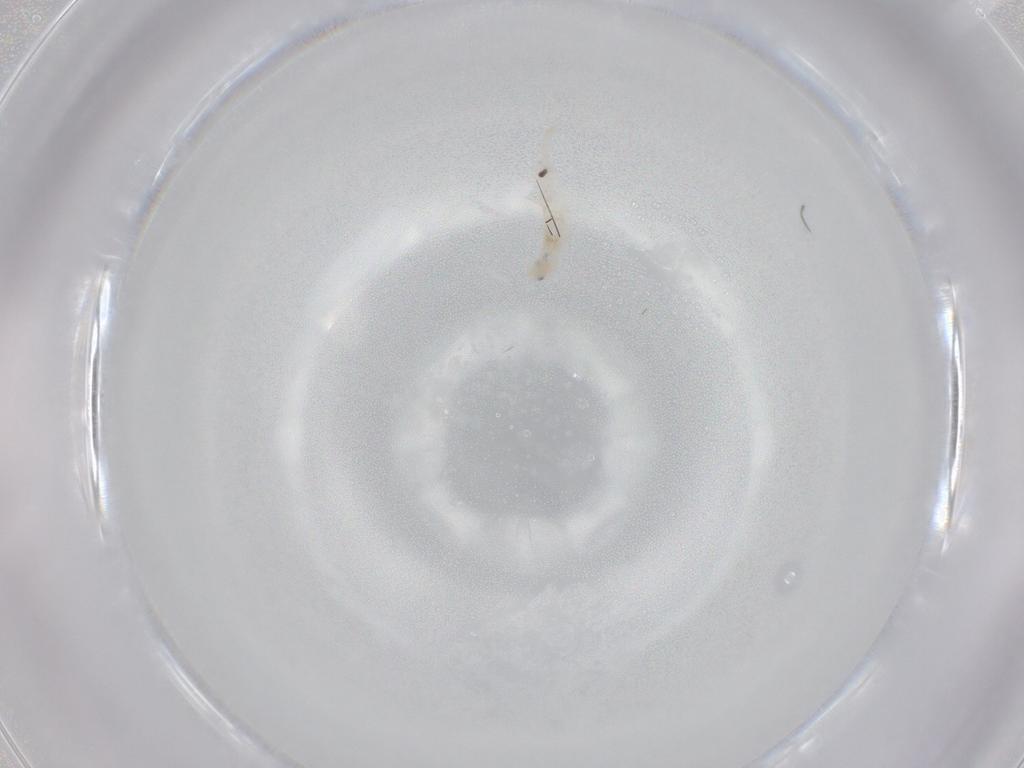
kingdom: Animalia
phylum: Arthropoda
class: Collembola
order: Entomobryomorpha
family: Entomobryidae
